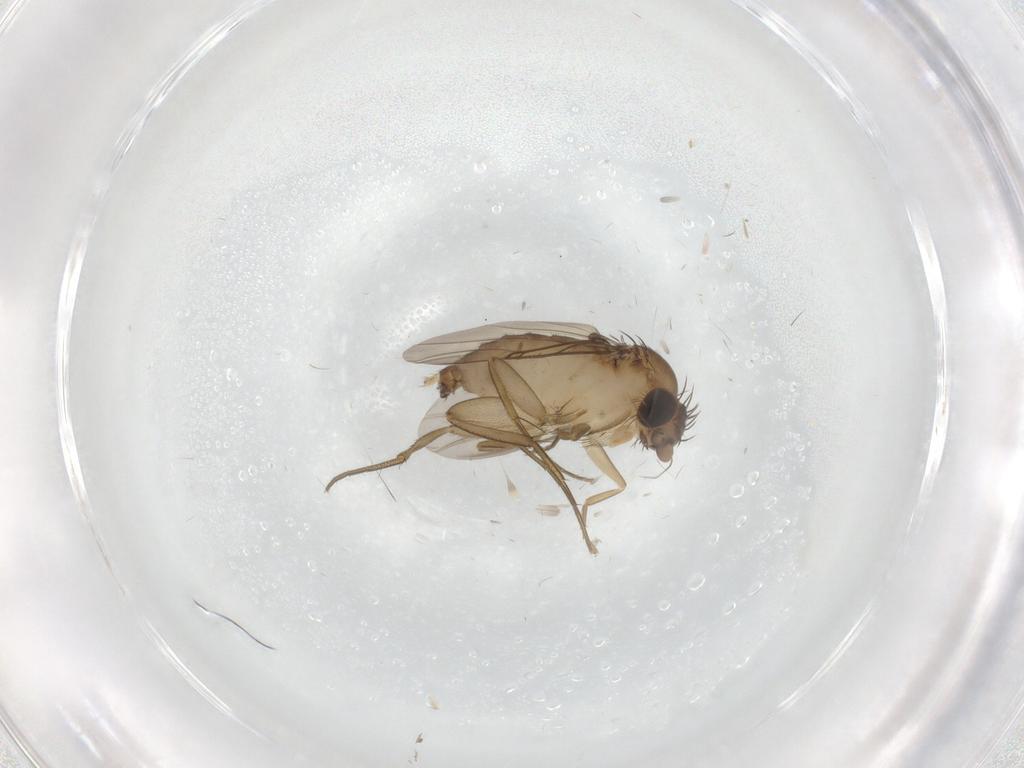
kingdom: Animalia
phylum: Arthropoda
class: Insecta
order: Diptera
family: Phoridae
